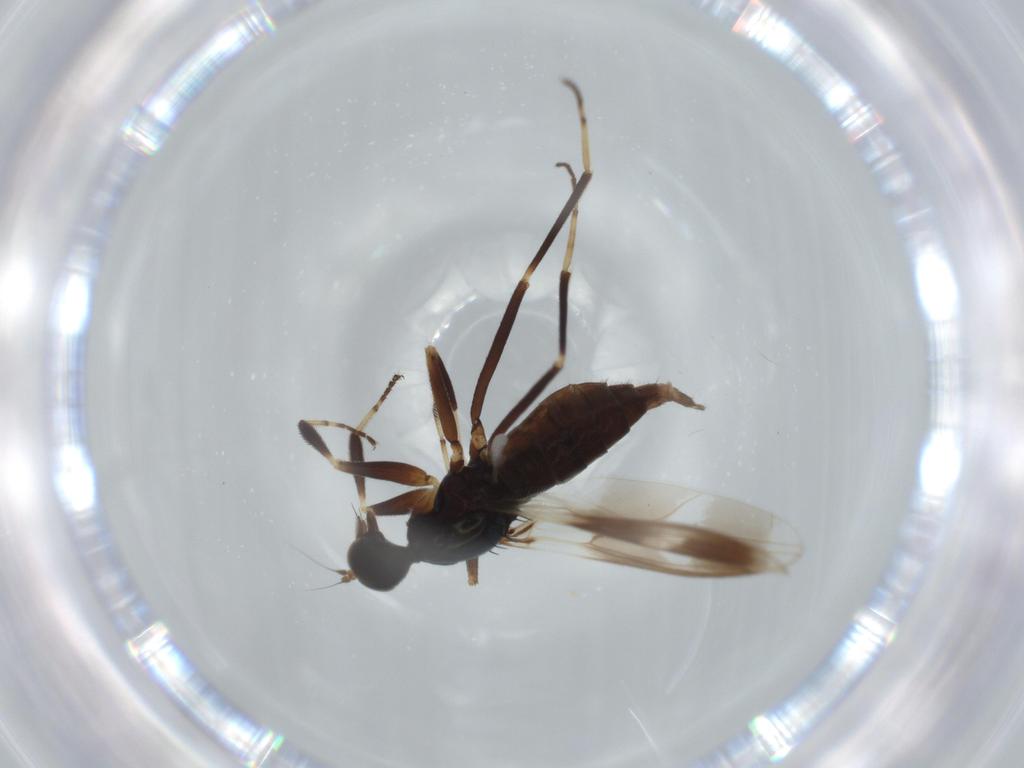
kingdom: Animalia
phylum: Arthropoda
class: Insecta
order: Diptera
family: Hybotidae
